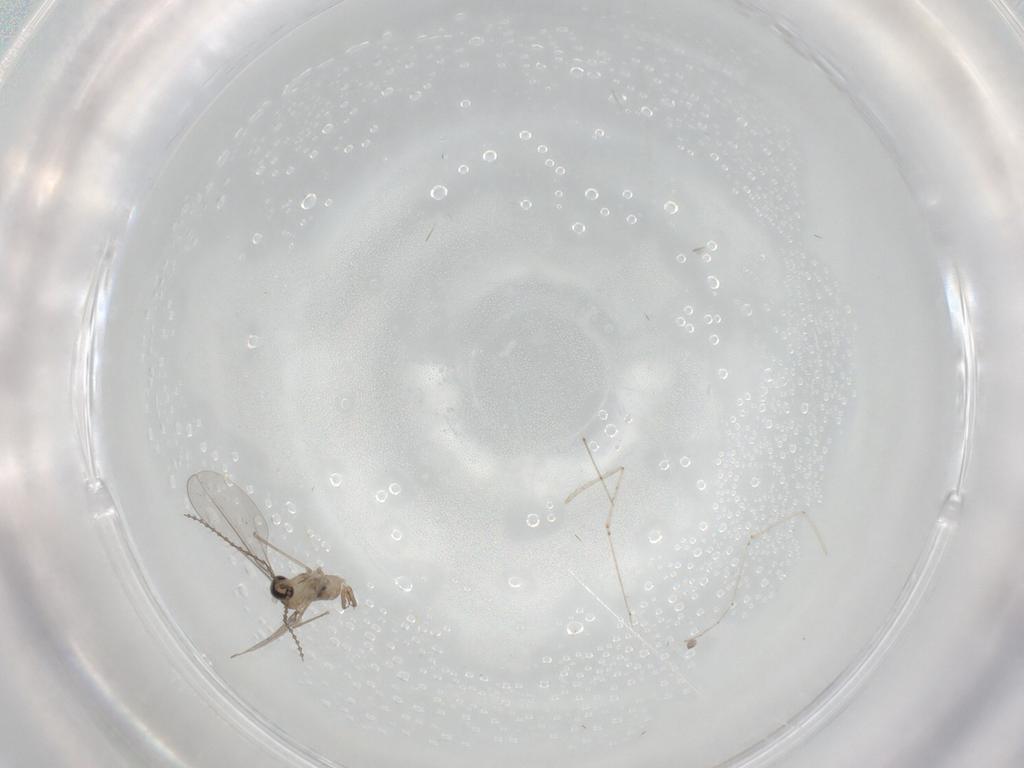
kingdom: Animalia
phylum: Arthropoda
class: Insecta
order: Diptera
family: Cecidomyiidae
